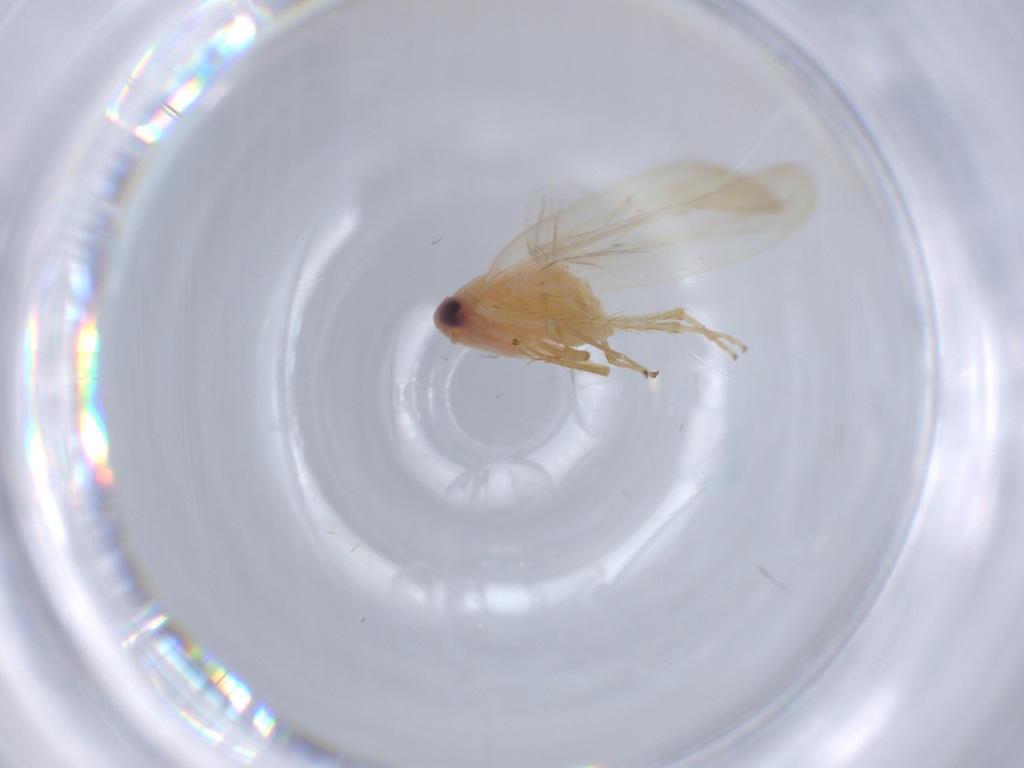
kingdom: Animalia
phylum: Arthropoda
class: Insecta
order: Hemiptera
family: Cicadellidae
